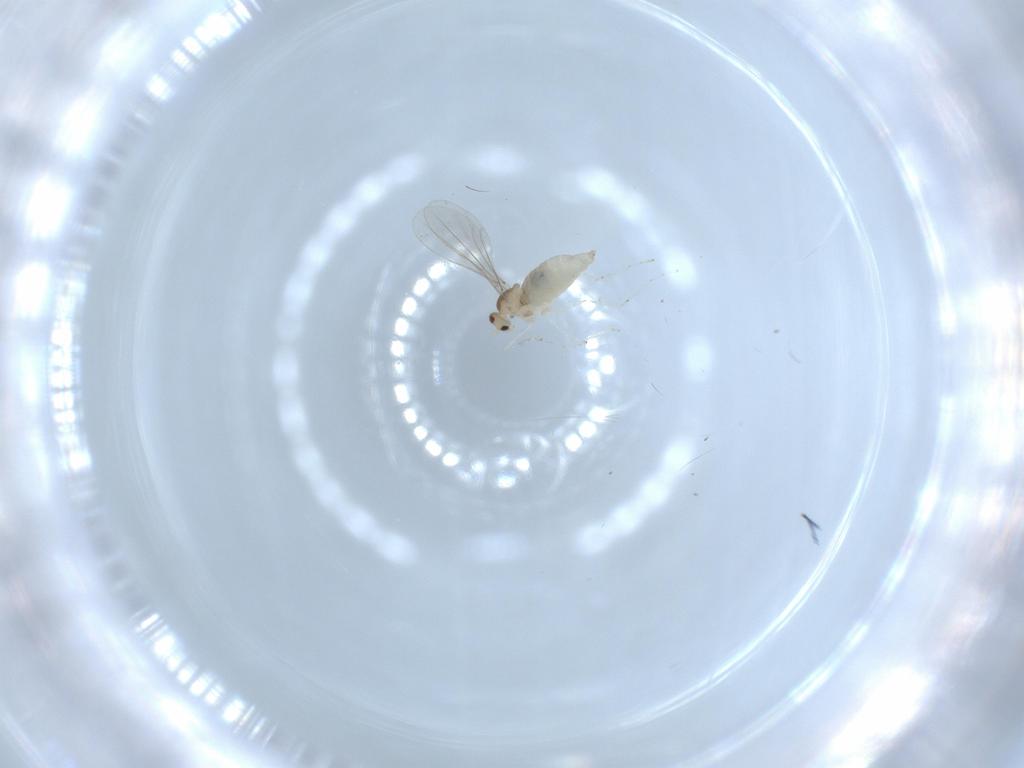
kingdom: Animalia
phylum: Arthropoda
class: Insecta
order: Diptera
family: Cecidomyiidae
